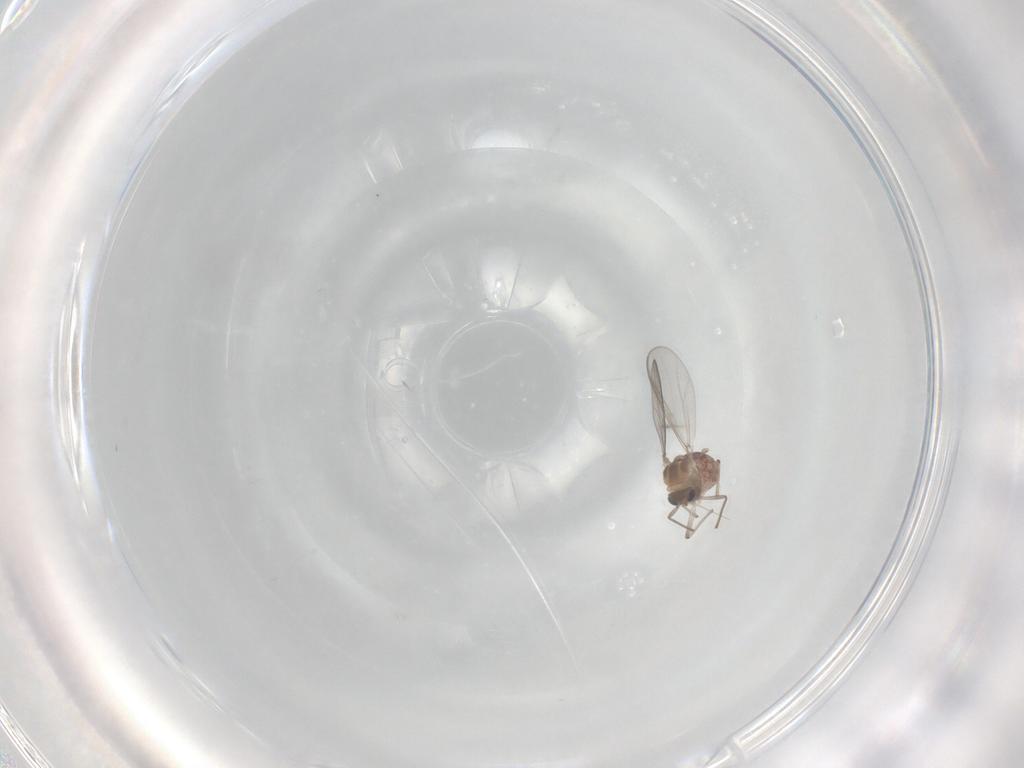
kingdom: Animalia
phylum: Arthropoda
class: Insecta
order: Diptera
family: Chironomidae
